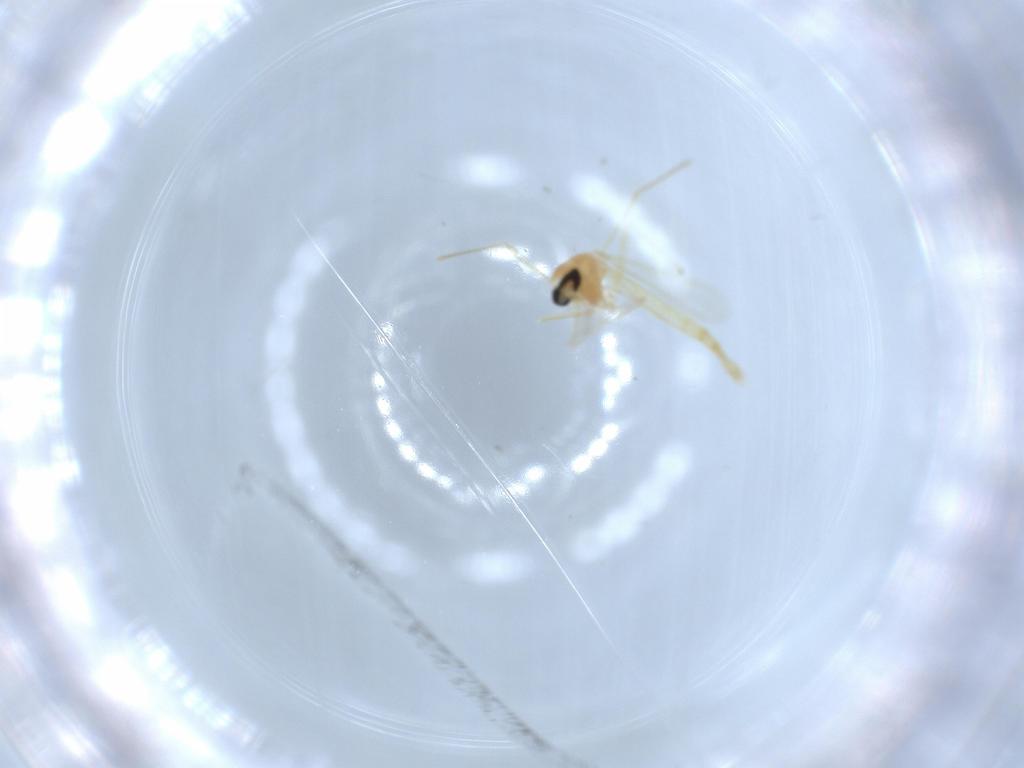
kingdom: Animalia
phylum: Arthropoda
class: Insecta
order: Diptera
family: Chironomidae
